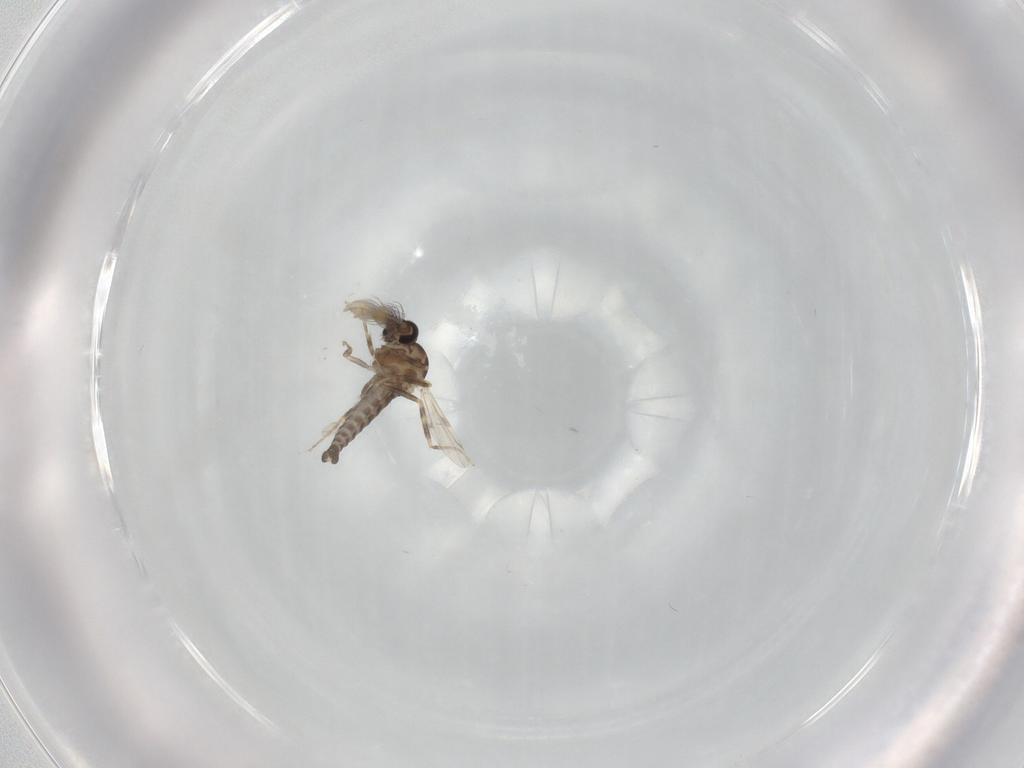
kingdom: Animalia
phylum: Arthropoda
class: Insecta
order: Diptera
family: Ceratopogonidae
